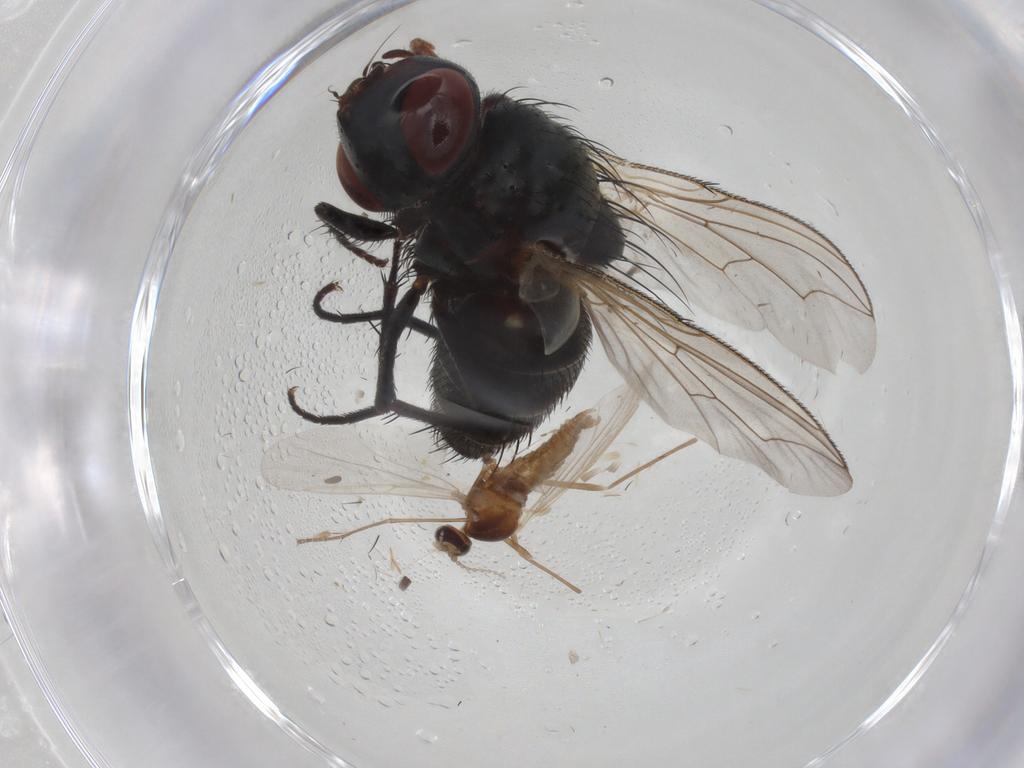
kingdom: Animalia
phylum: Arthropoda
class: Insecta
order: Diptera
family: Sarcophagidae
